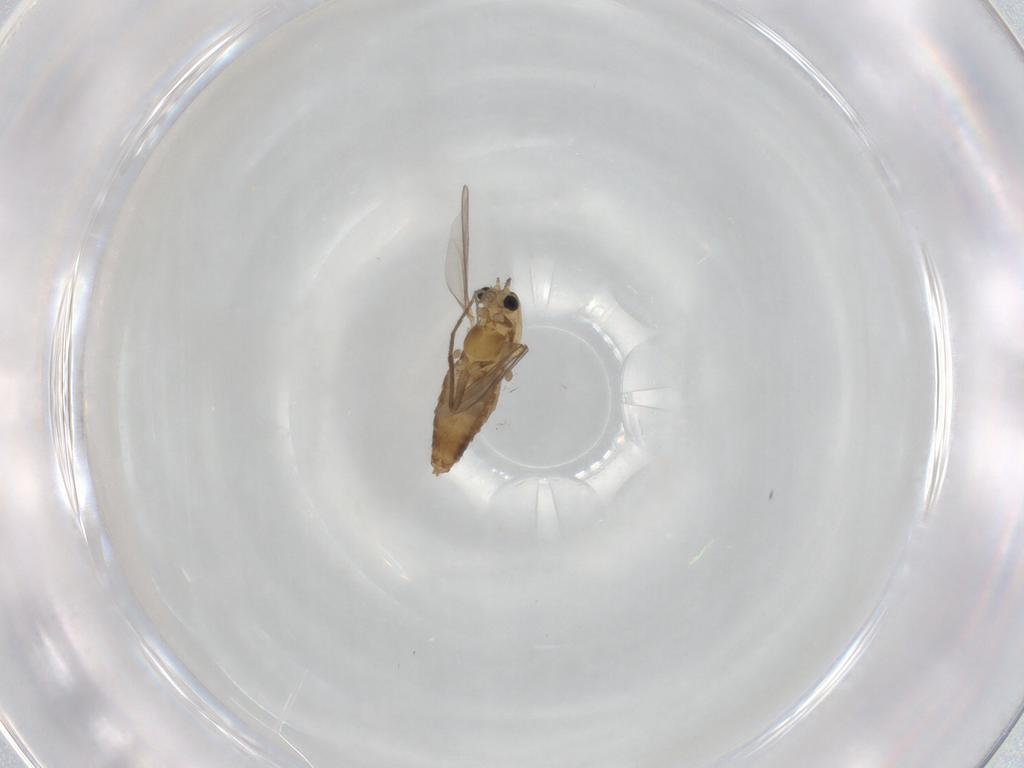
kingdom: Animalia
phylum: Arthropoda
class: Insecta
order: Diptera
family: Chironomidae
